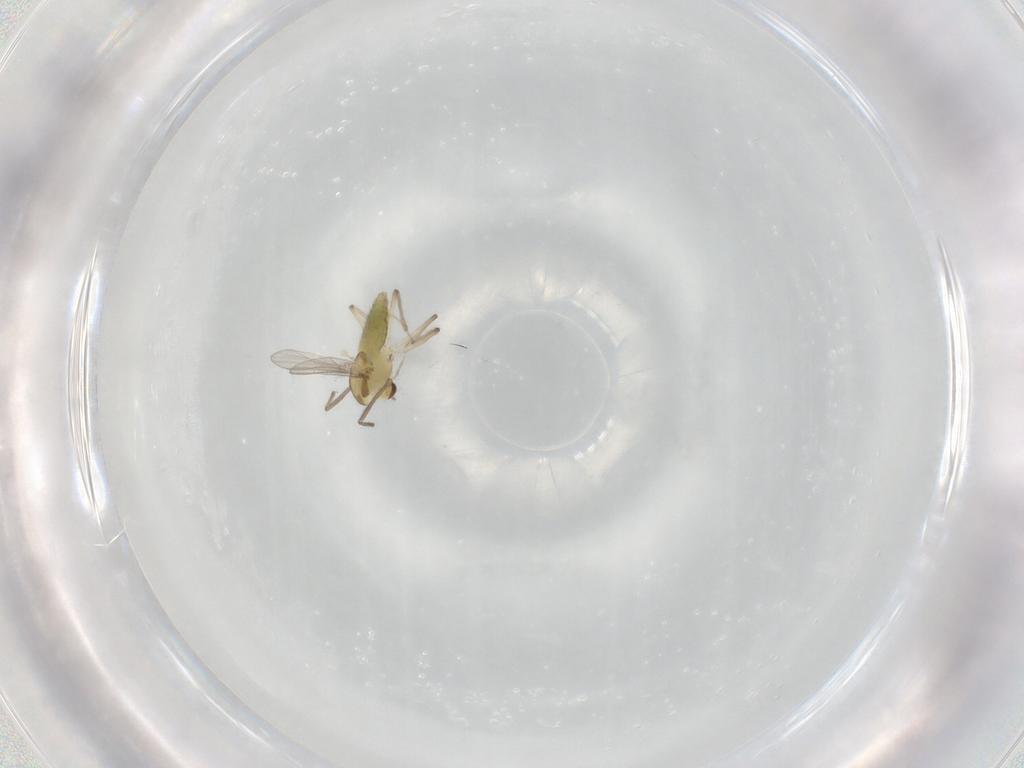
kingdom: Animalia
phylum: Arthropoda
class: Insecta
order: Diptera
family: Chironomidae
